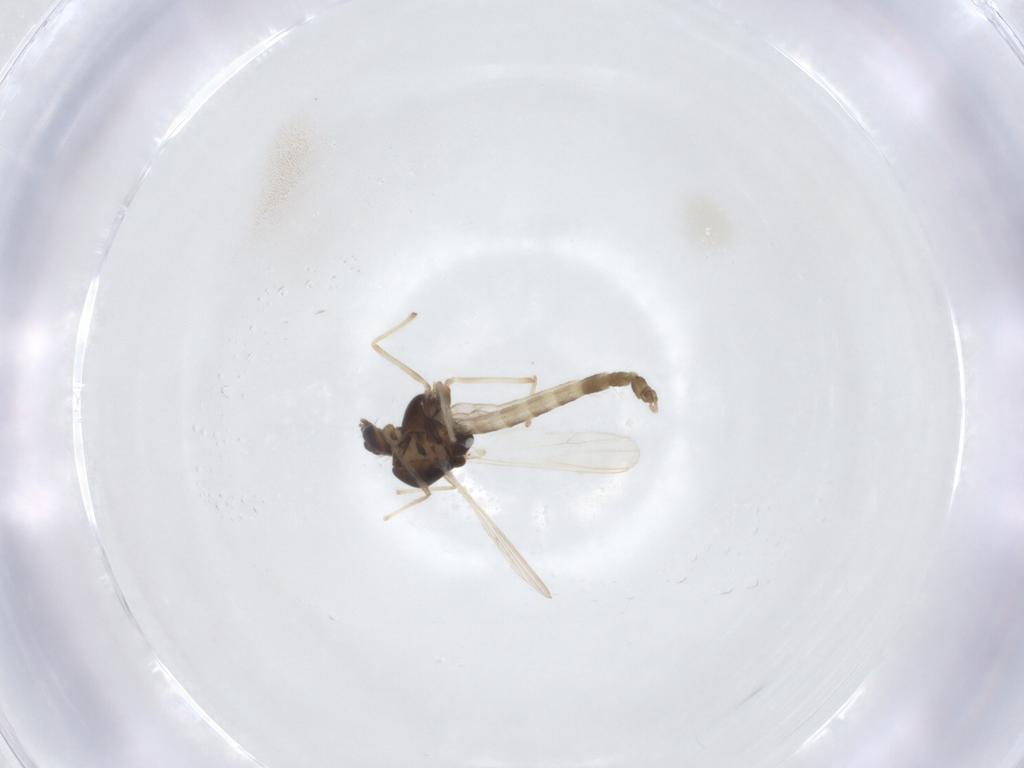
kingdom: Animalia
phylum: Arthropoda
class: Insecta
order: Diptera
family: Chironomidae
